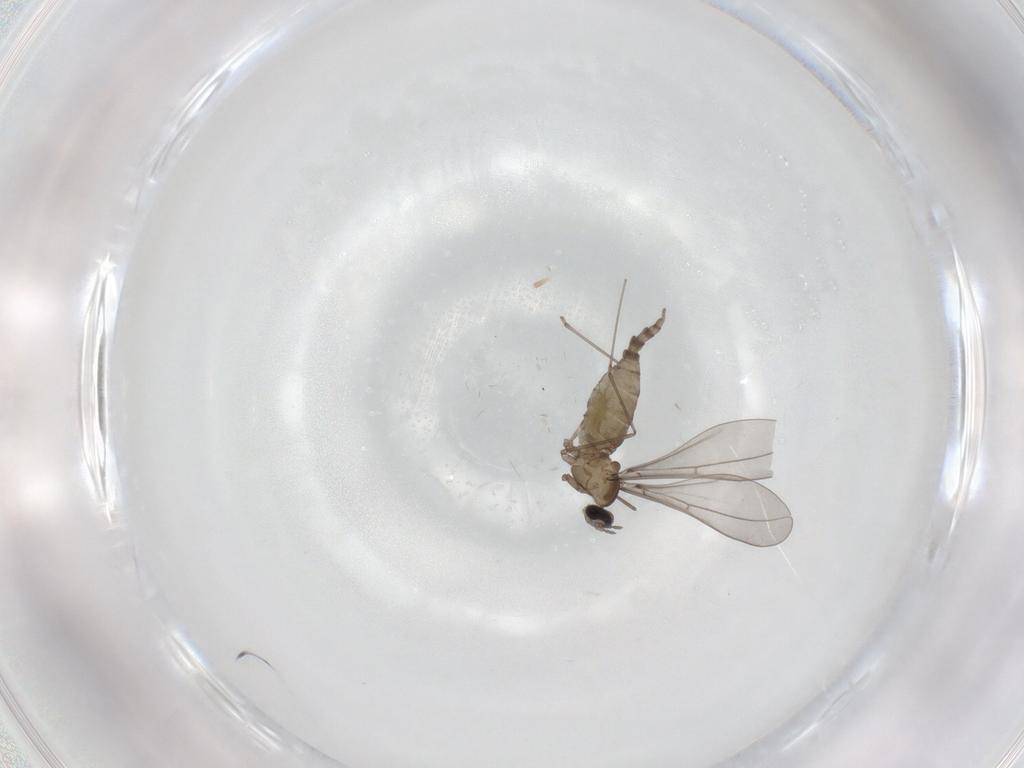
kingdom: Animalia
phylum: Arthropoda
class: Insecta
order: Diptera
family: Cecidomyiidae
